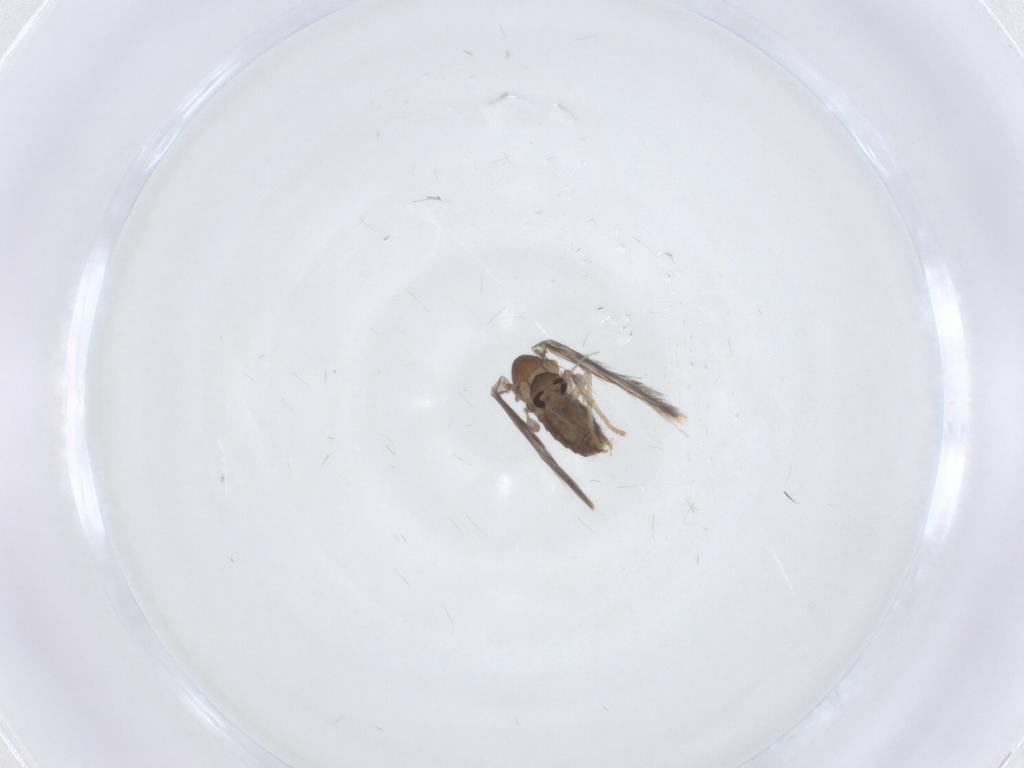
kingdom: Animalia
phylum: Arthropoda
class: Insecta
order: Diptera
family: Psychodidae
